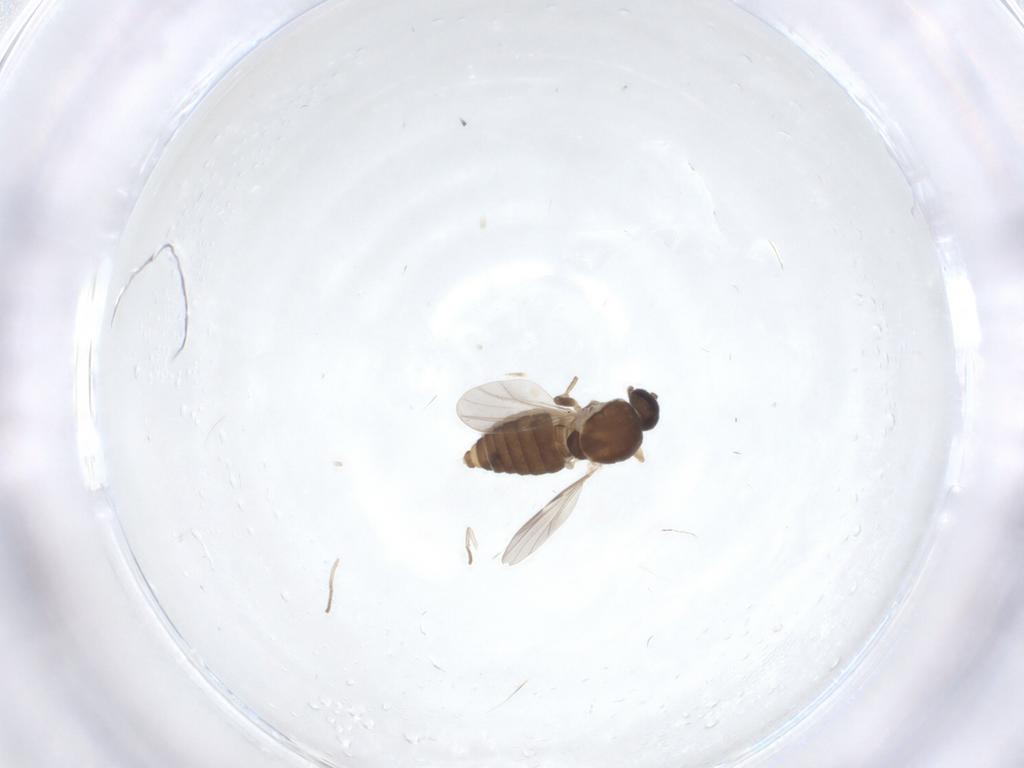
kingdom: Animalia
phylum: Arthropoda
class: Insecta
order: Diptera
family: Ceratopogonidae
